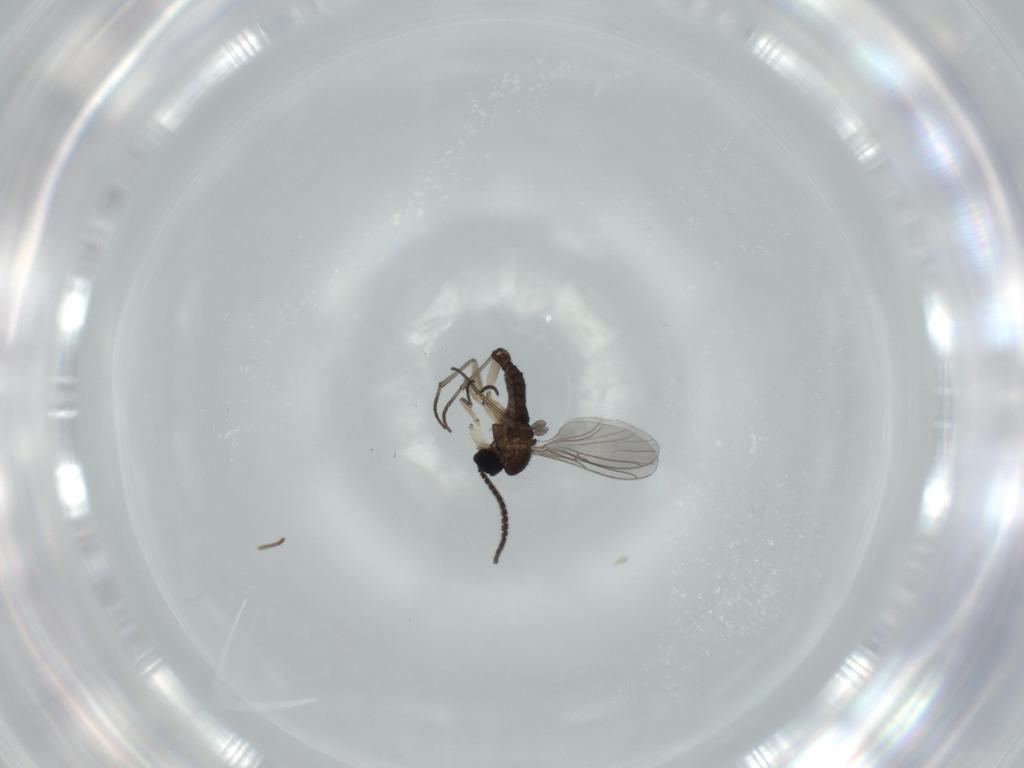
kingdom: Animalia
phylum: Arthropoda
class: Insecta
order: Diptera
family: Sciaridae
